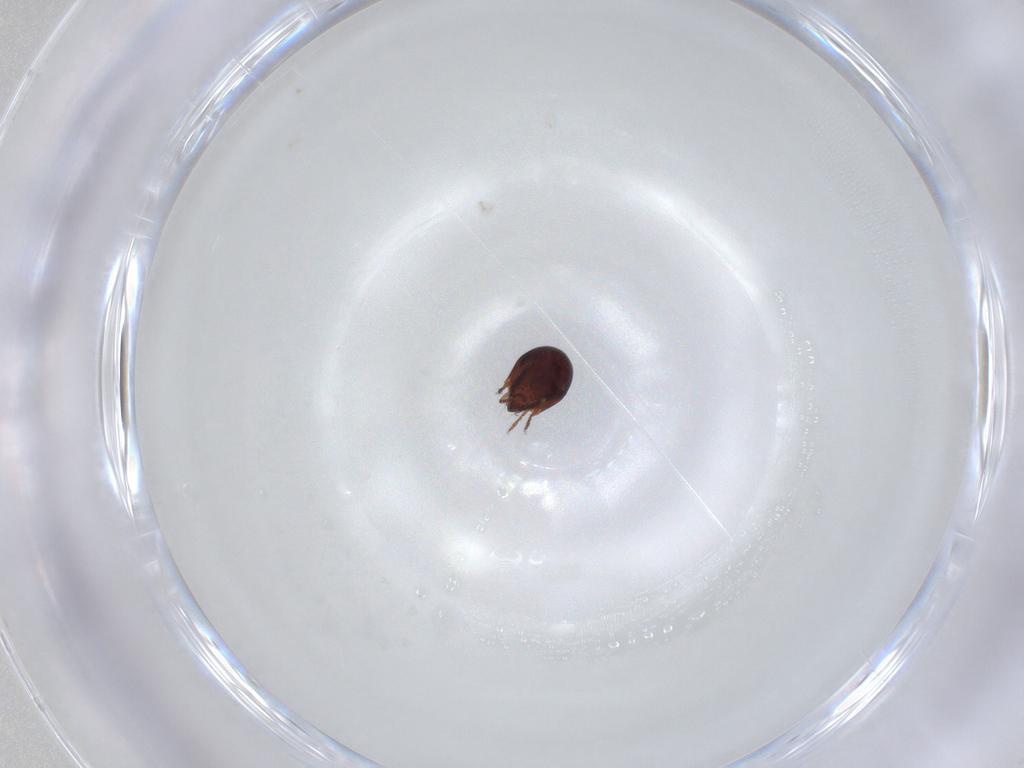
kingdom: Animalia
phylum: Arthropoda
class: Arachnida
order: Sarcoptiformes
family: Humerobatidae
